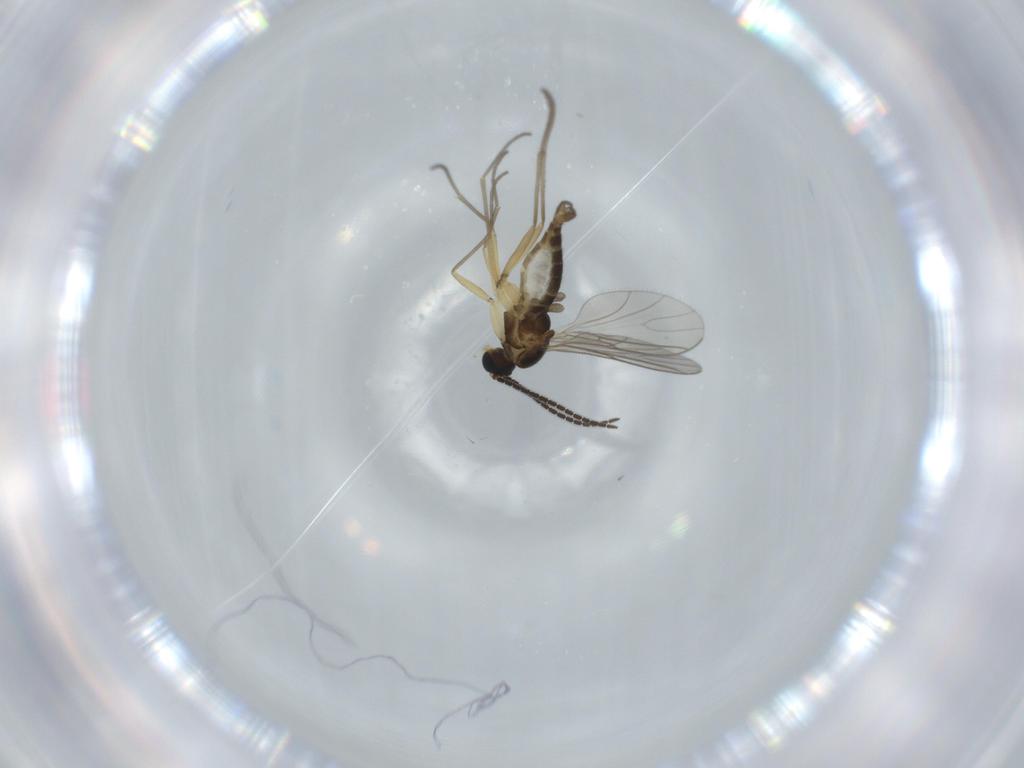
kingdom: Animalia
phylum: Arthropoda
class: Insecta
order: Diptera
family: Sciaridae
